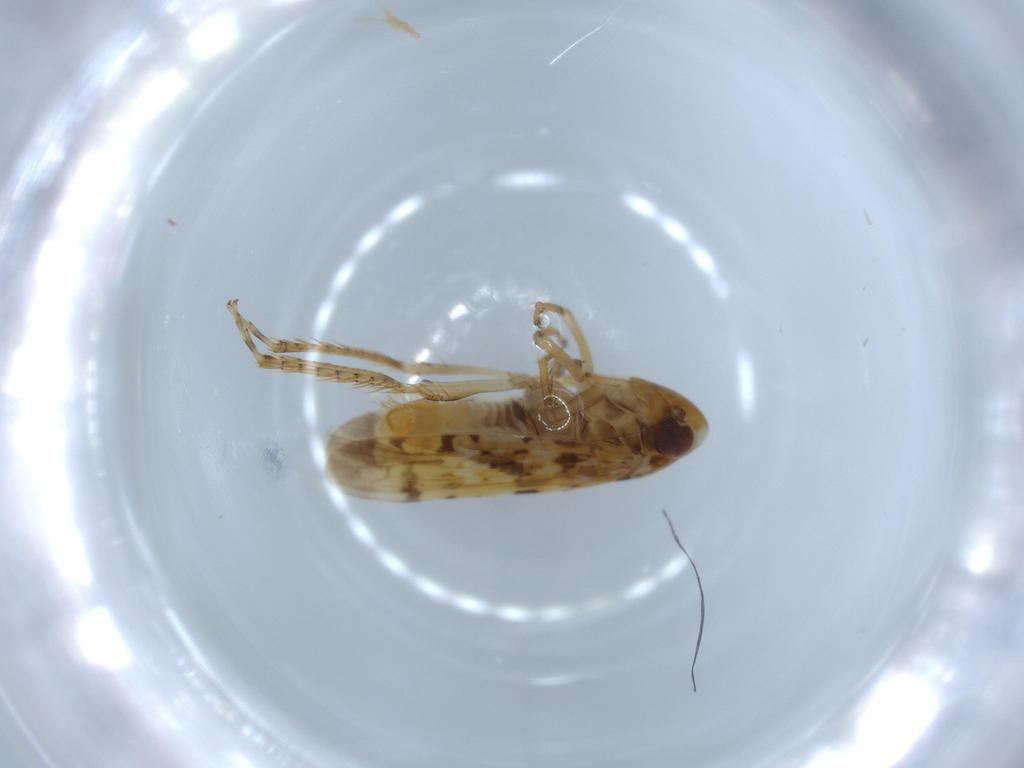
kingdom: Animalia
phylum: Arthropoda
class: Insecta
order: Hemiptera
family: Cicadellidae
